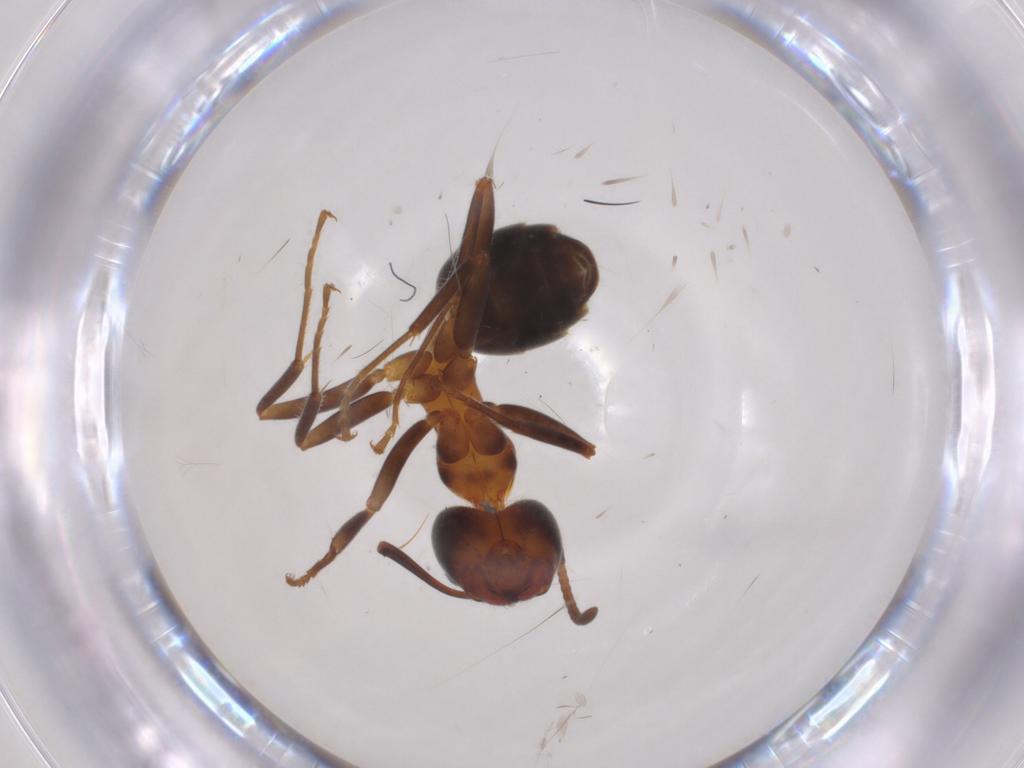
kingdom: Animalia
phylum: Arthropoda
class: Insecta
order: Hymenoptera
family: Formicidae
